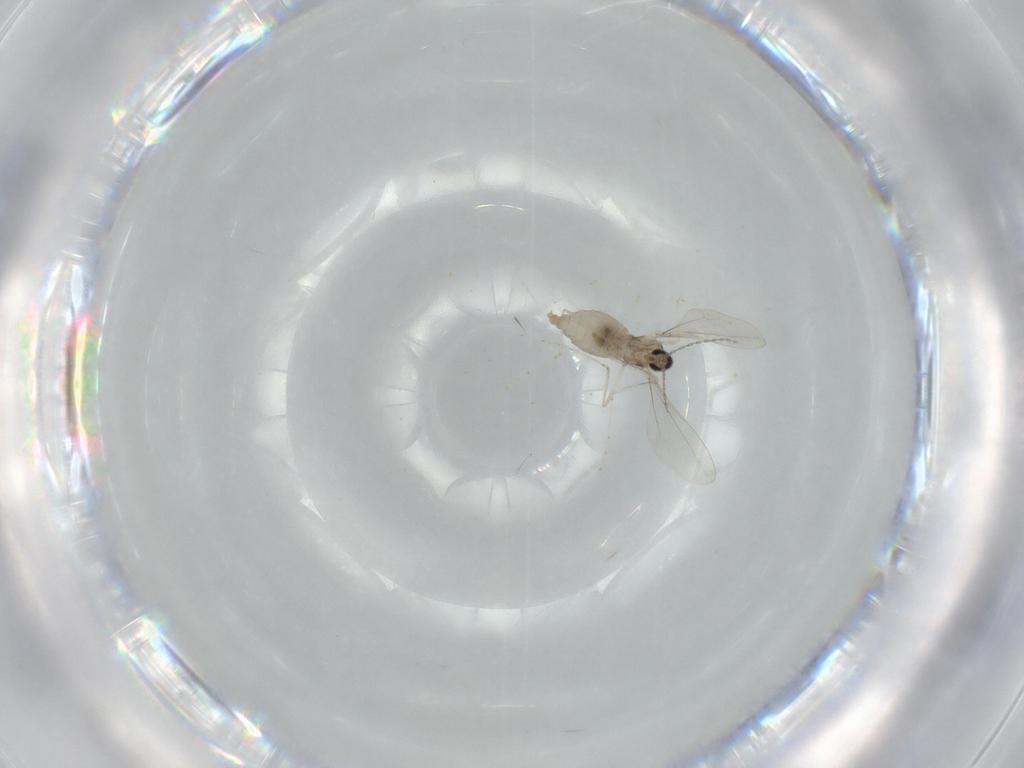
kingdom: Animalia
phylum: Arthropoda
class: Insecta
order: Diptera
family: Cecidomyiidae
